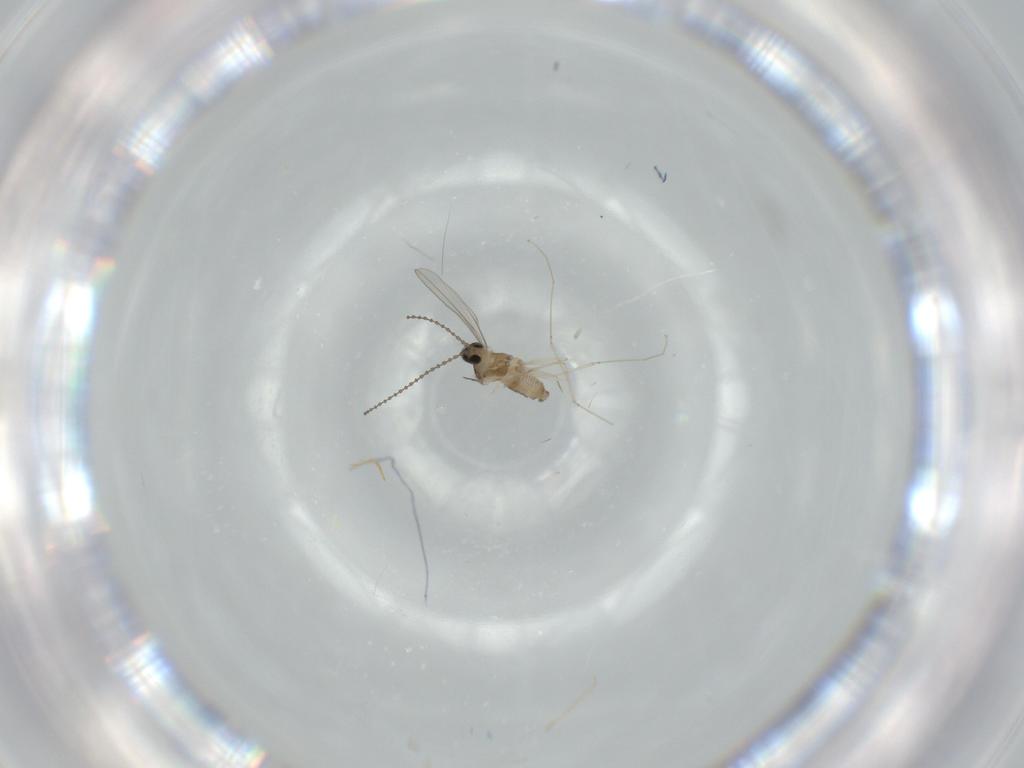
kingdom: Animalia
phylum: Arthropoda
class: Insecta
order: Diptera
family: Cecidomyiidae
